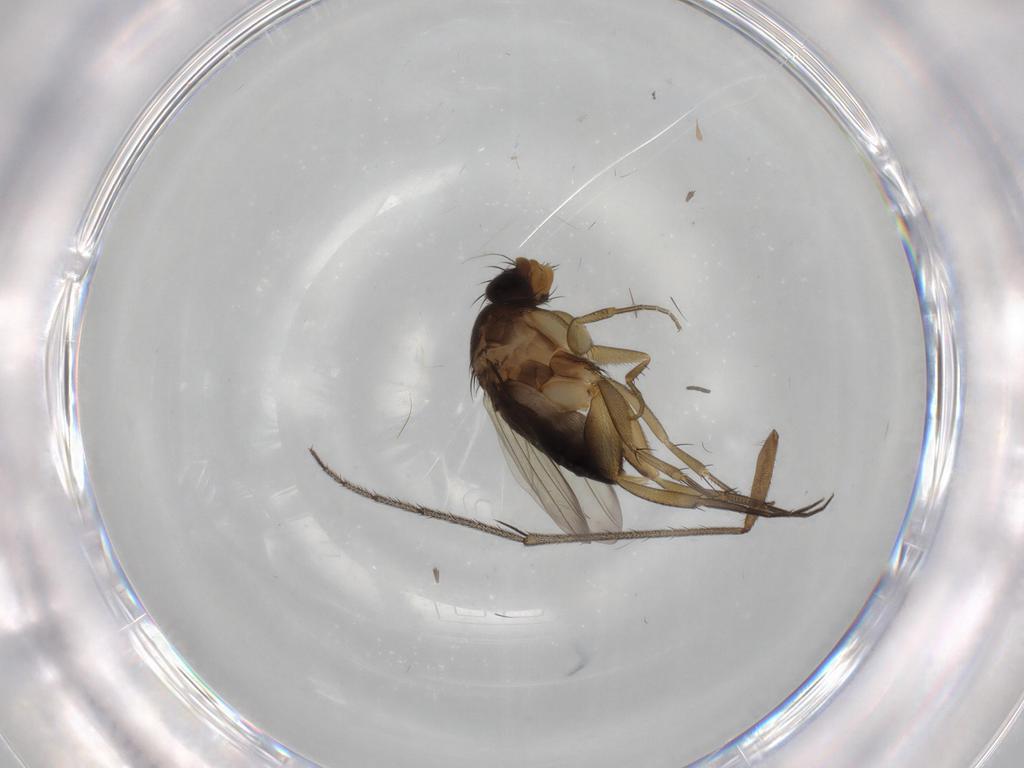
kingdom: Animalia
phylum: Arthropoda
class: Insecta
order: Diptera
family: Phoridae
